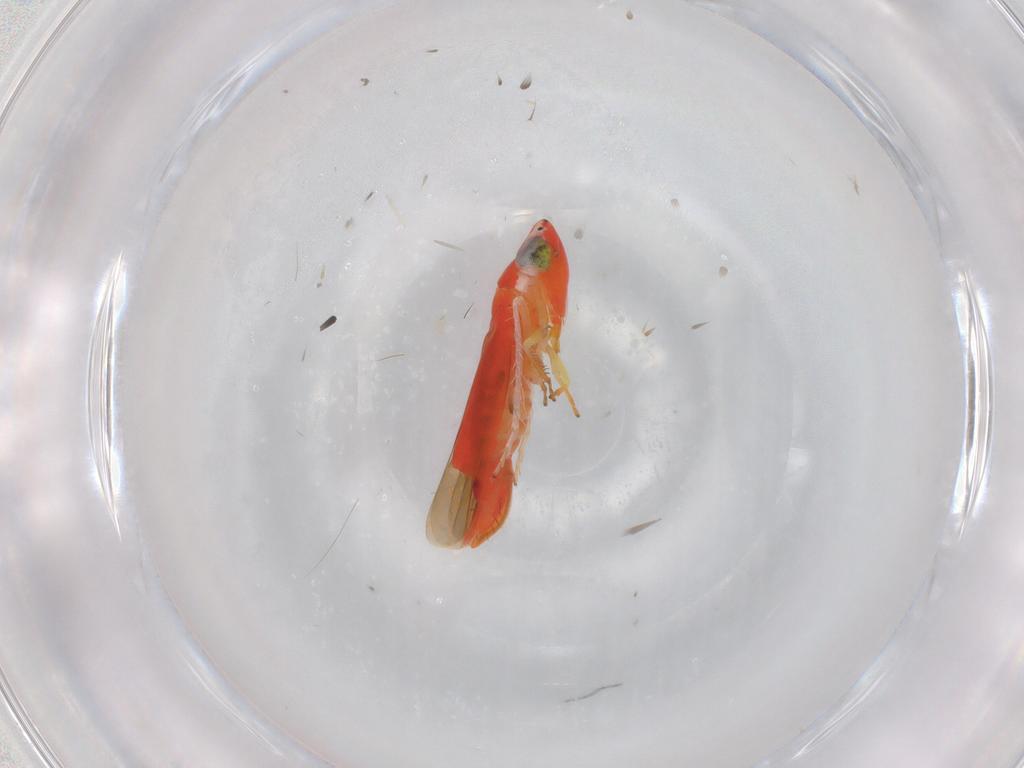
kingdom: Animalia
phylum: Arthropoda
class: Insecta
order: Hemiptera
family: Cicadellidae
